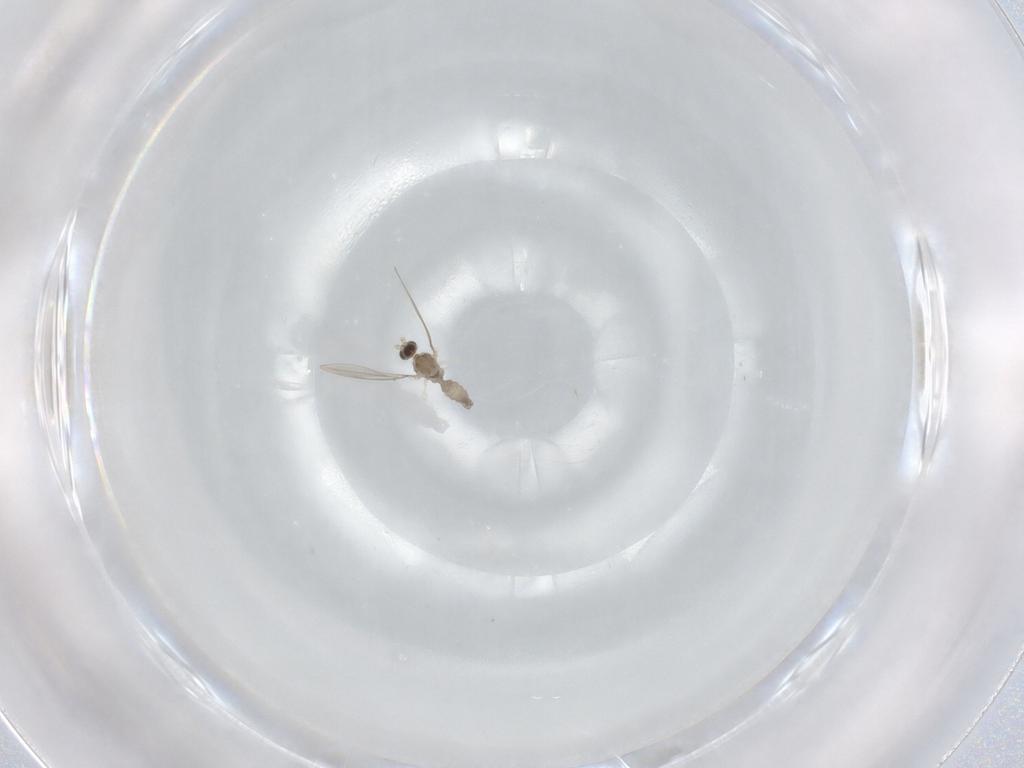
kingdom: Animalia
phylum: Arthropoda
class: Insecta
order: Diptera
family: Cecidomyiidae
